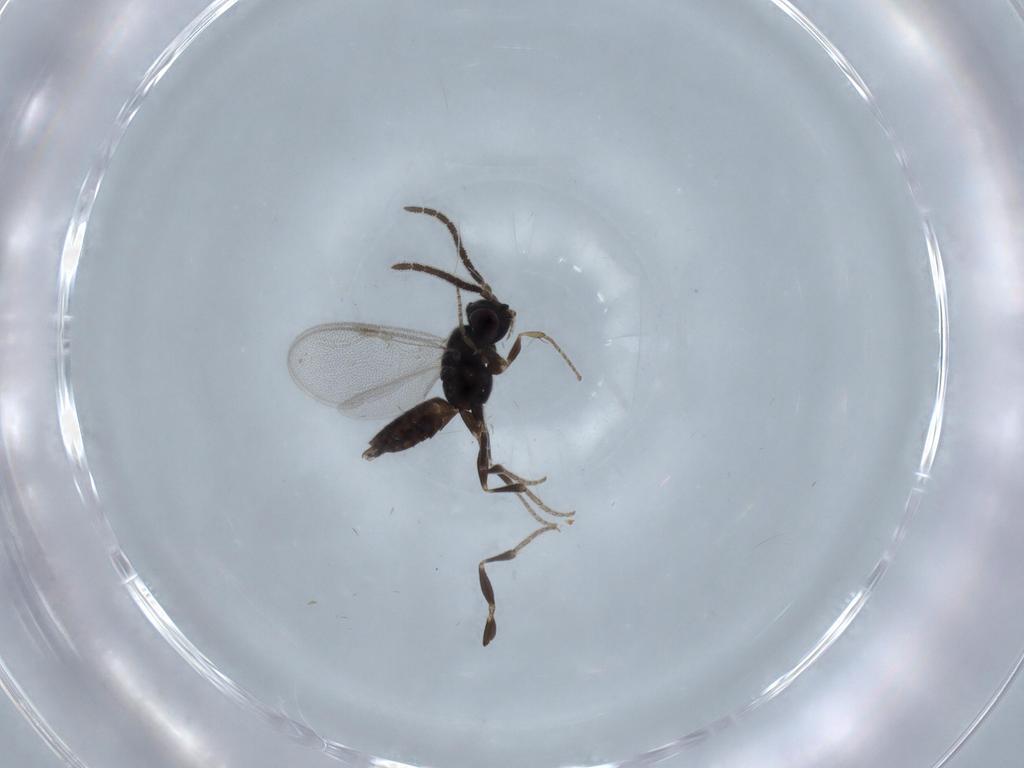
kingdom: Animalia
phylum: Arthropoda
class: Insecta
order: Hymenoptera
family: Dryinidae
